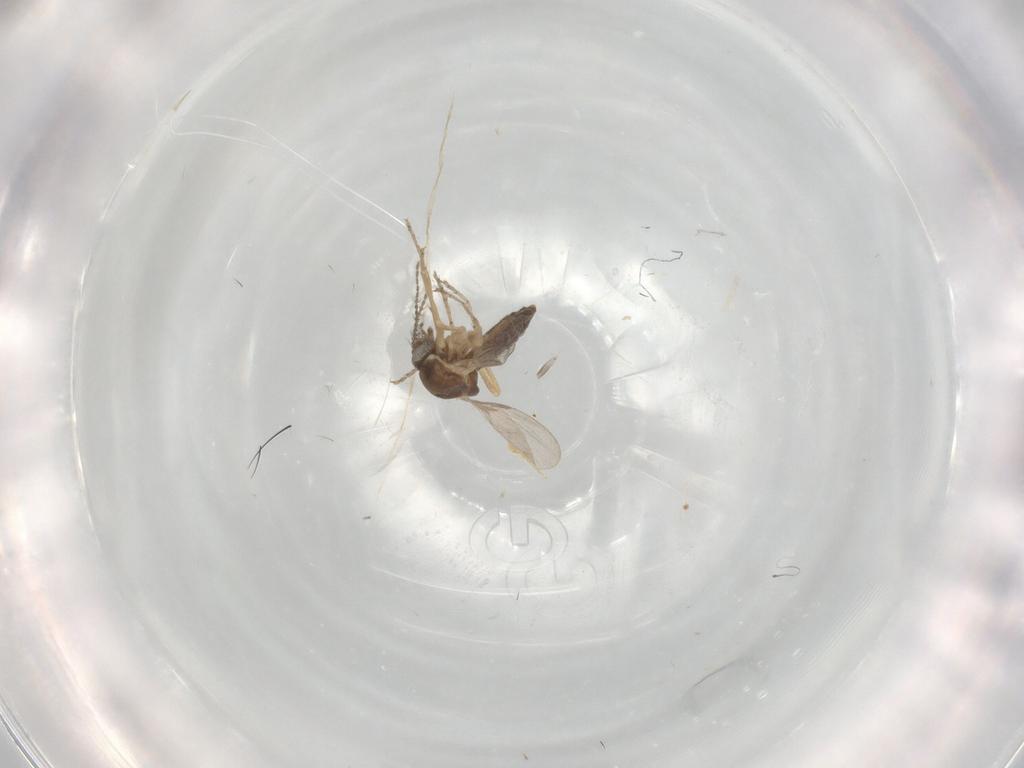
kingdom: Animalia
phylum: Arthropoda
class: Insecta
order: Diptera
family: Ceratopogonidae
